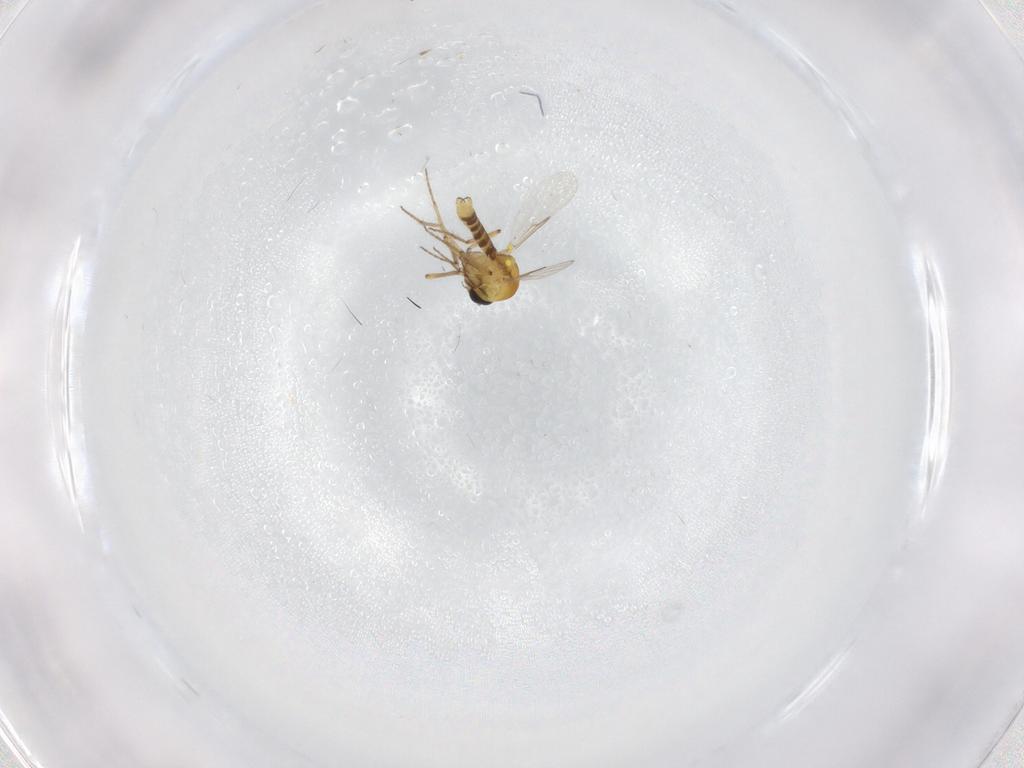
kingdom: Animalia
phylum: Arthropoda
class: Insecta
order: Diptera
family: Ceratopogonidae
